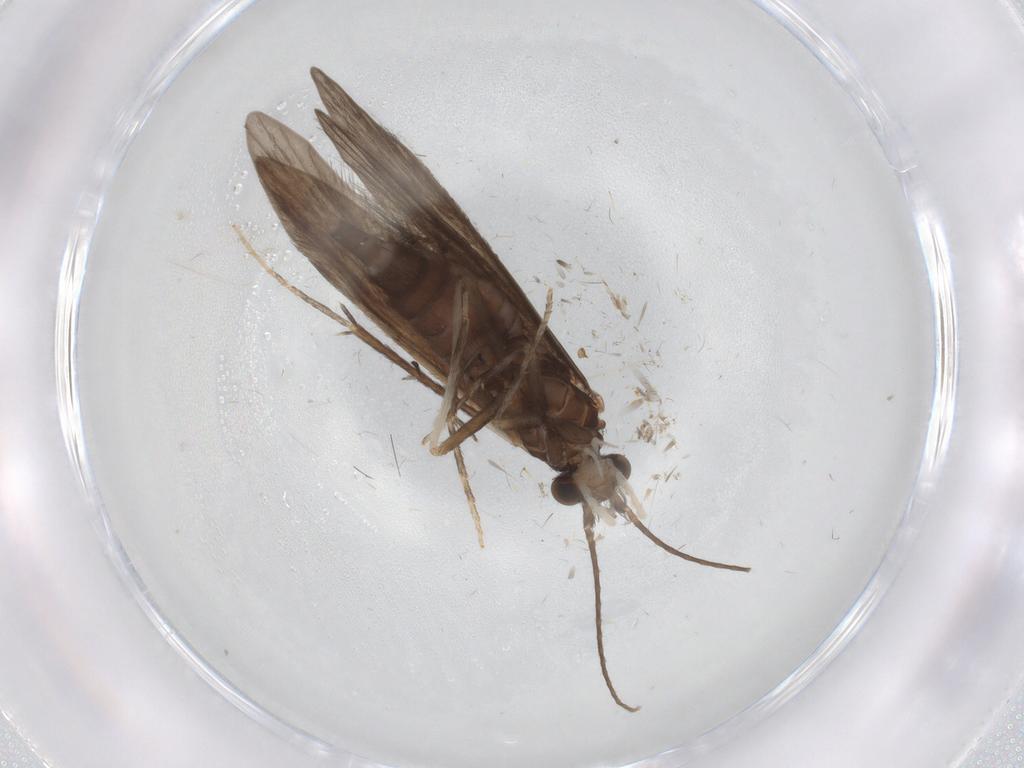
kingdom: Animalia
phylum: Arthropoda
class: Insecta
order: Trichoptera
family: Xiphocentronidae
